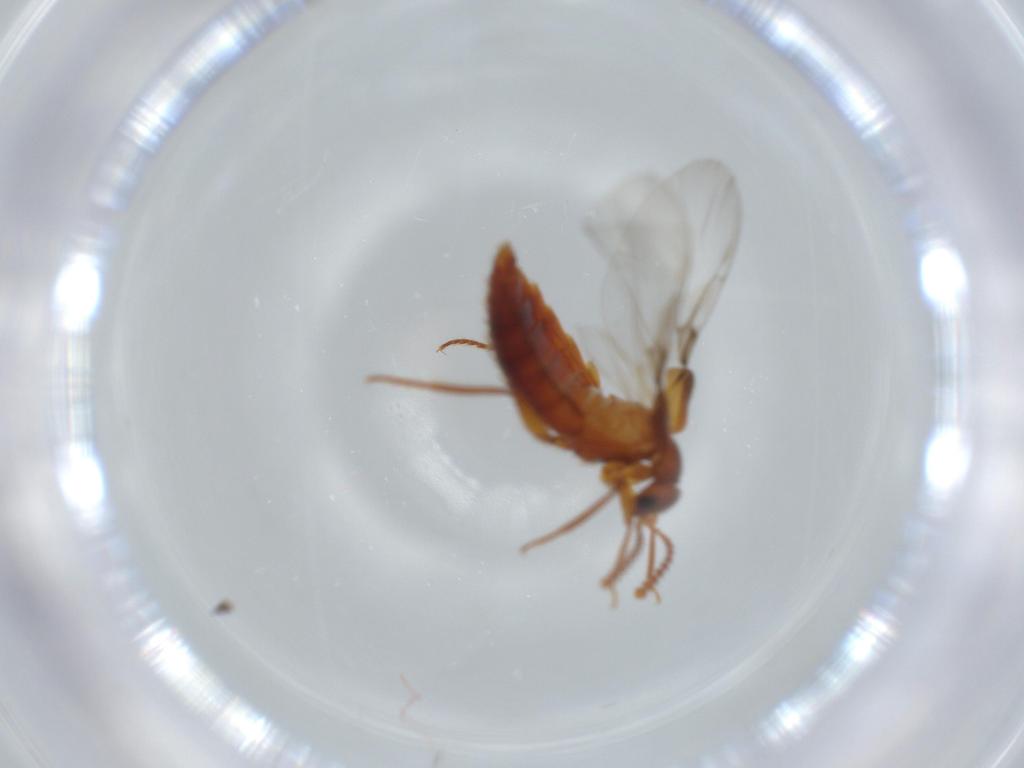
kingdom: Animalia
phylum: Arthropoda
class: Insecta
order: Coleoptera
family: Staphylinidae
